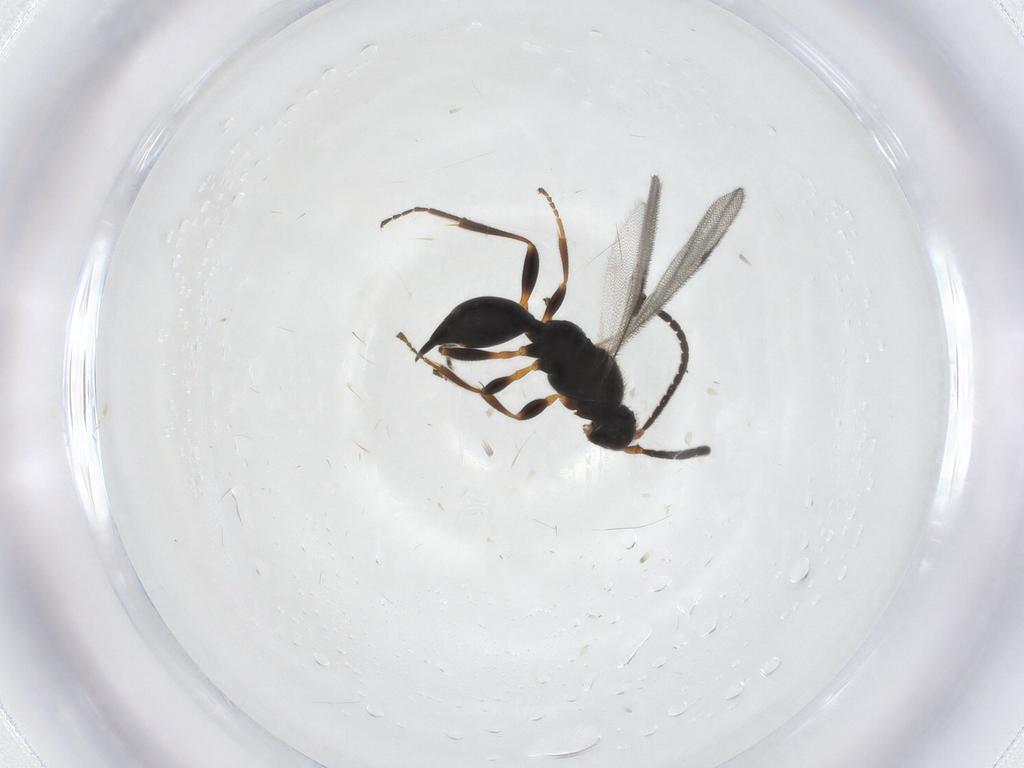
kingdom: Animalia
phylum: Arthropoda
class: Insecta
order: Hymenoptera
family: Ichneumonidae
